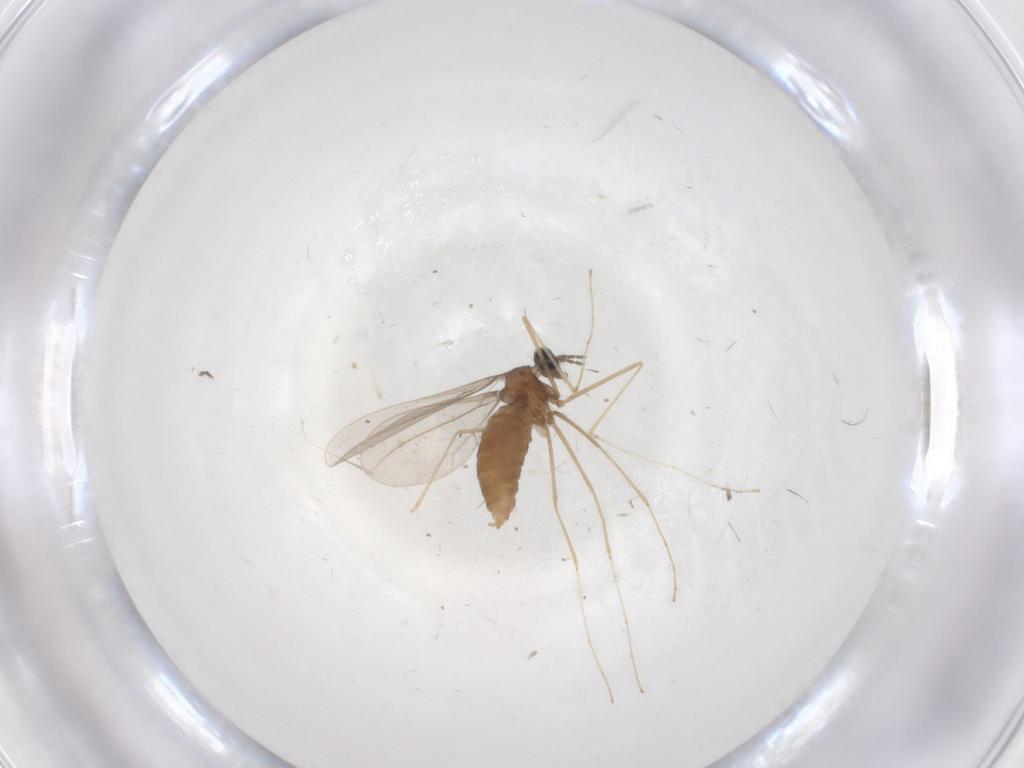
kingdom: Animalia
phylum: Arthropoda
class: Insecta
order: Diptera
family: Cecidomyiidae
